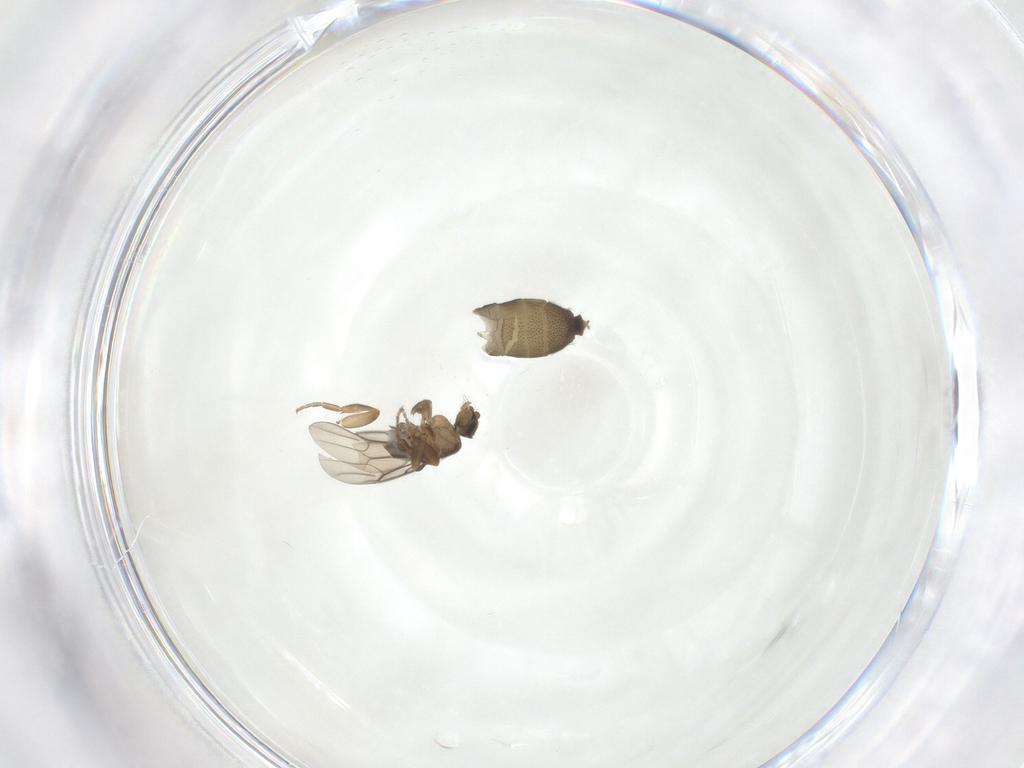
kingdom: Animalia
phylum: Arthropoda
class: Insecta
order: Diptera
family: Phoridae
